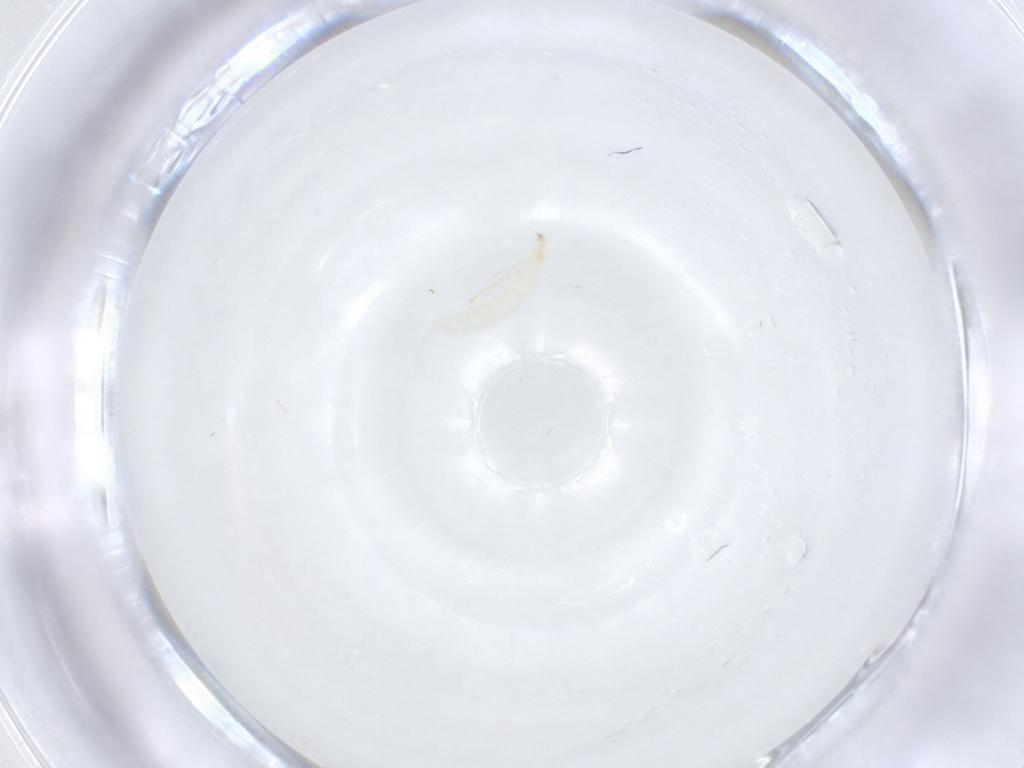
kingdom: Animalia
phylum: Arthropoda
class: Insecta
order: Diptera
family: Sarcophagidae
